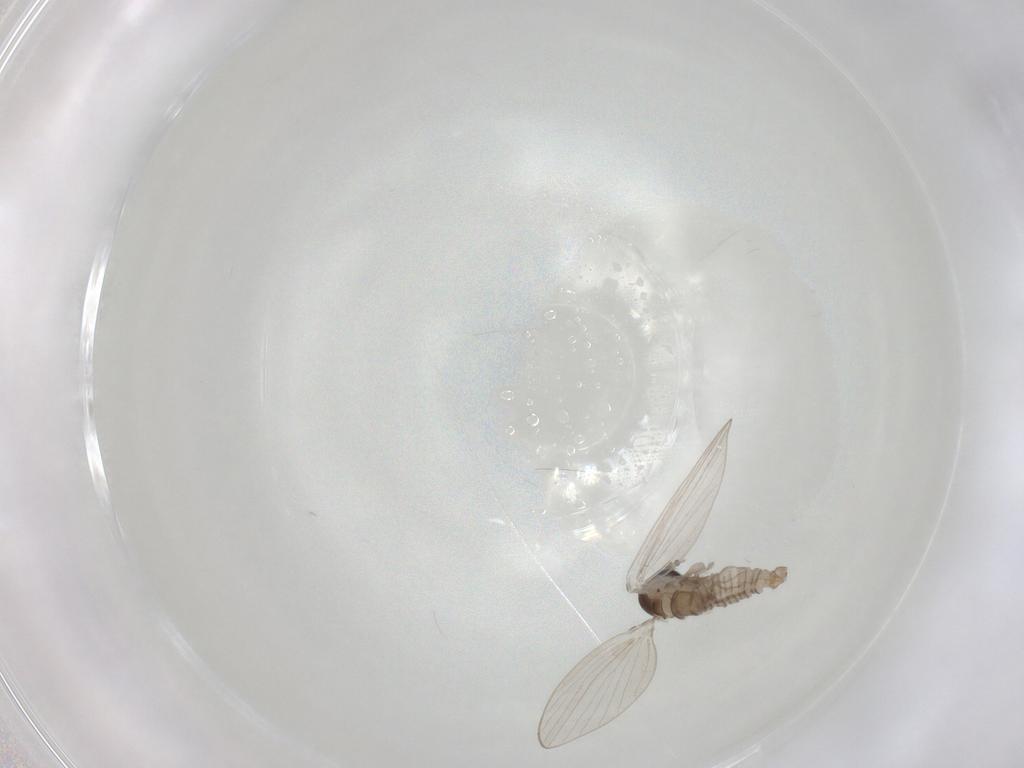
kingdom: Animalia
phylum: Arthropoda
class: Insecta
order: Diptera
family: Psychodidae
